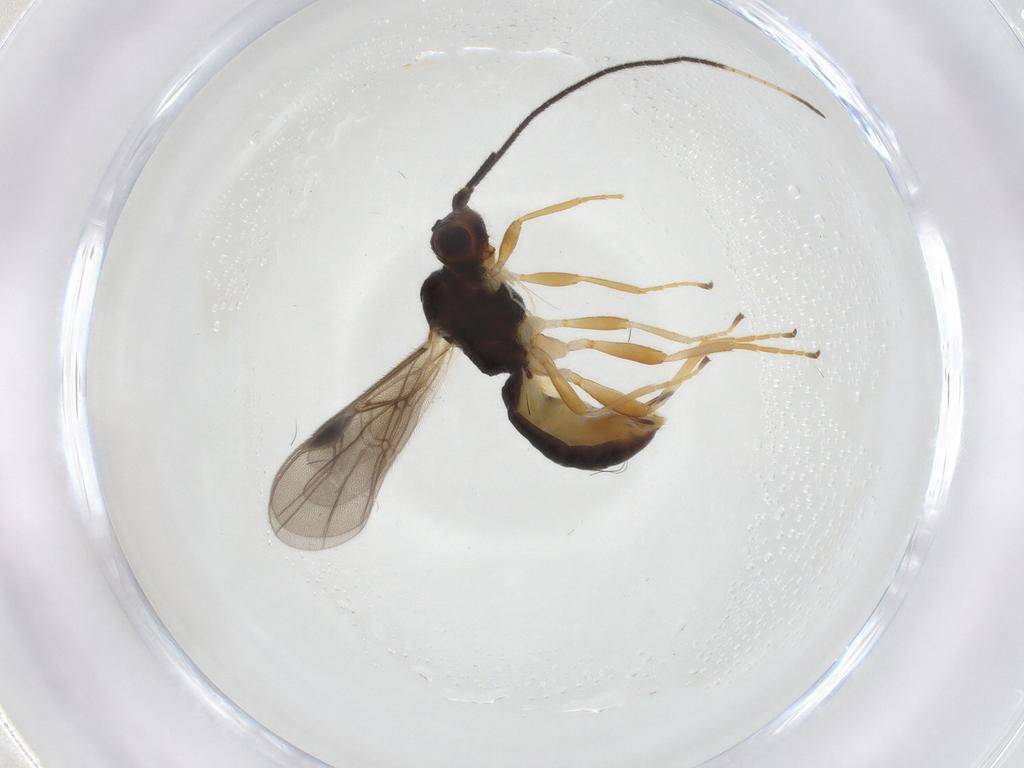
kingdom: Animalia
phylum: Arthropoda
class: Insecta
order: Hymenoptera
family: Braconidae
